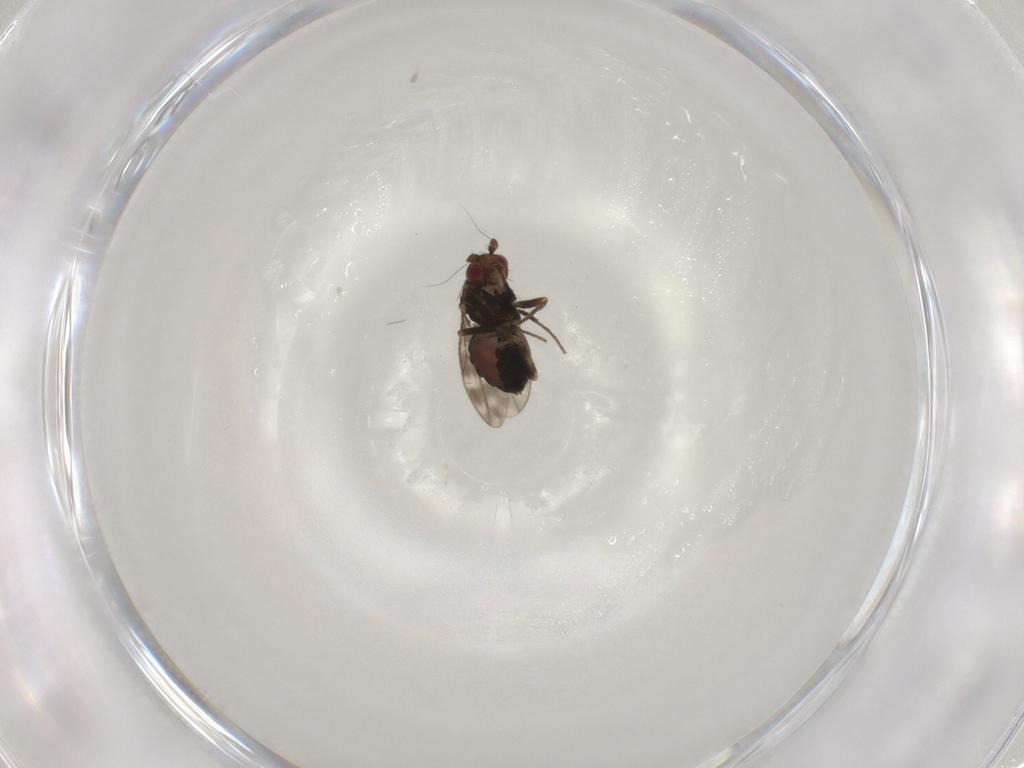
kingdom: Animalia
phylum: Arthropoda
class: Insecta
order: Diptera
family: Sphaeroceridae
